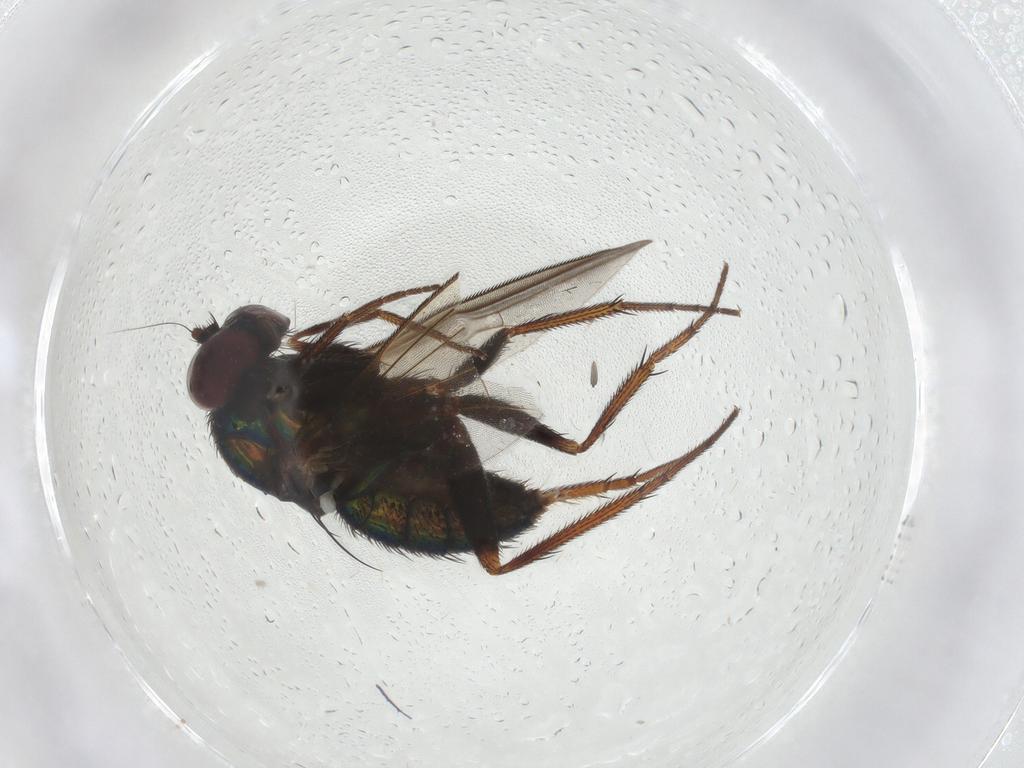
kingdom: Animalia
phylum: Arthropoda
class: Insecta
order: Diptera
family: Dolichopodidae
